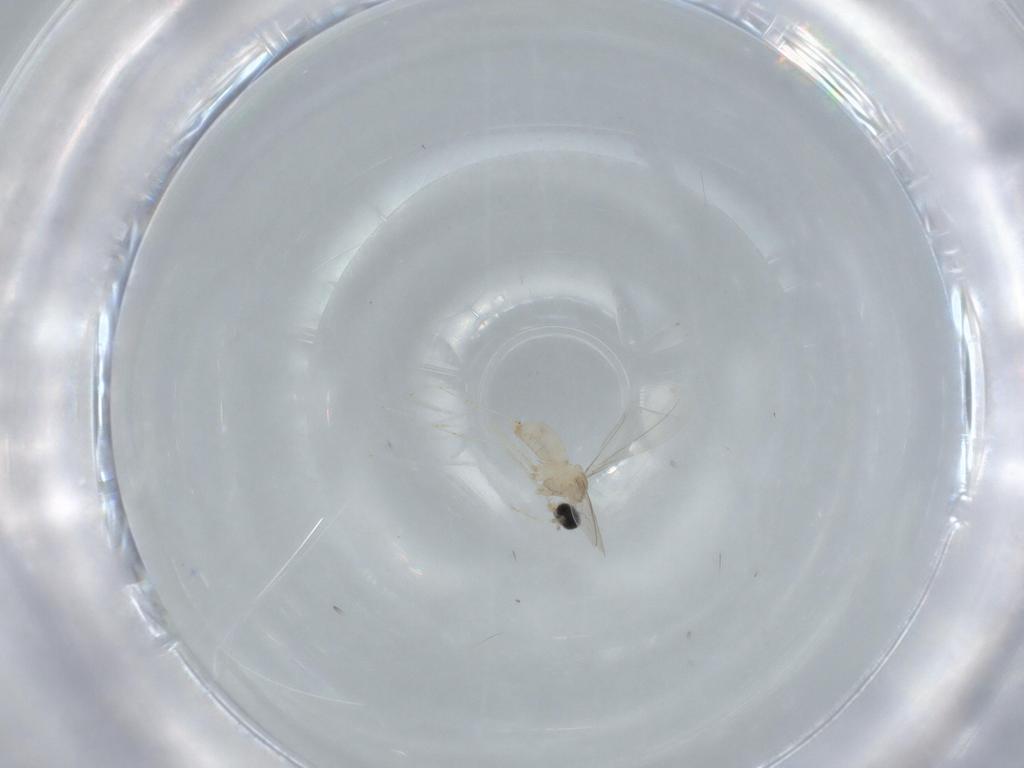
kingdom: Animalia
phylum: Arthropoda
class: Insecta
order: Diptera
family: Cecidomyiidae
